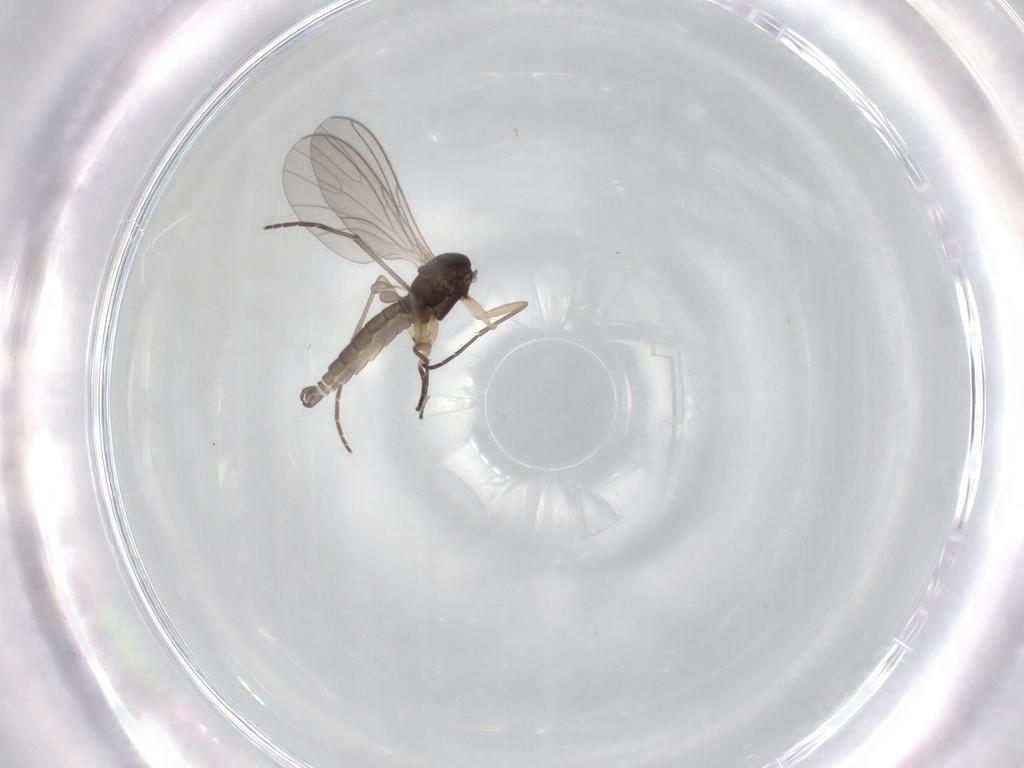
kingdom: Animalia
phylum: Arthropoda
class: Insecta
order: Diptera
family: Sciaridae
